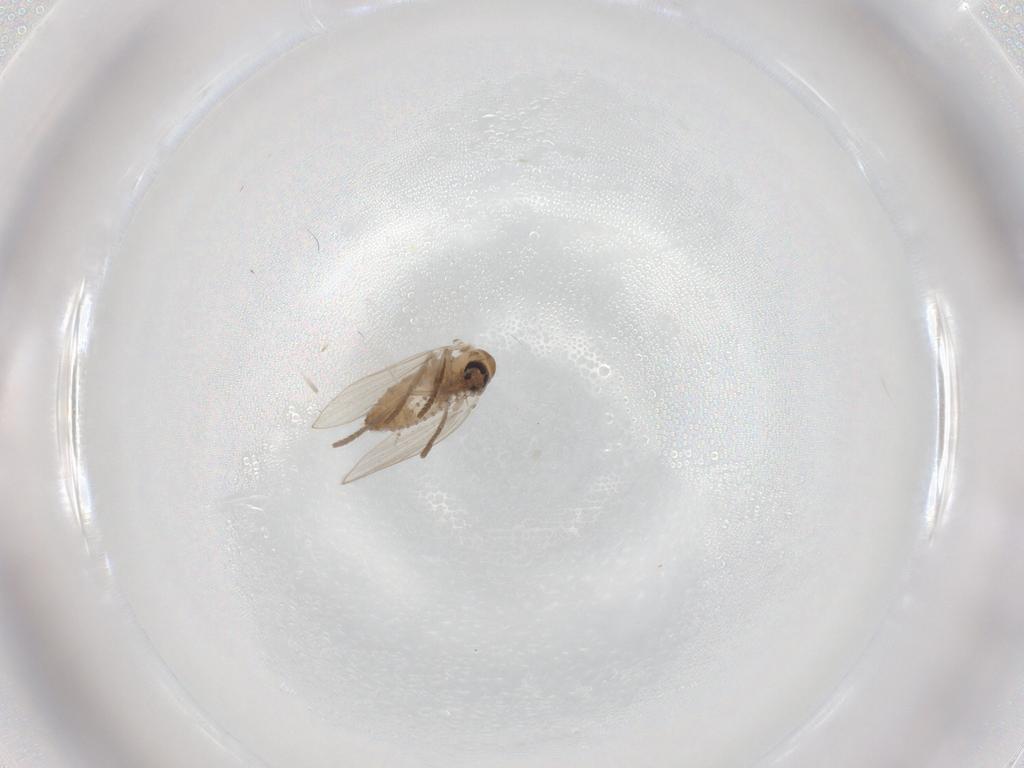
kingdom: Animalia
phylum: Arthropoda
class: Insecta
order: Diptera
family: Psychodidae
